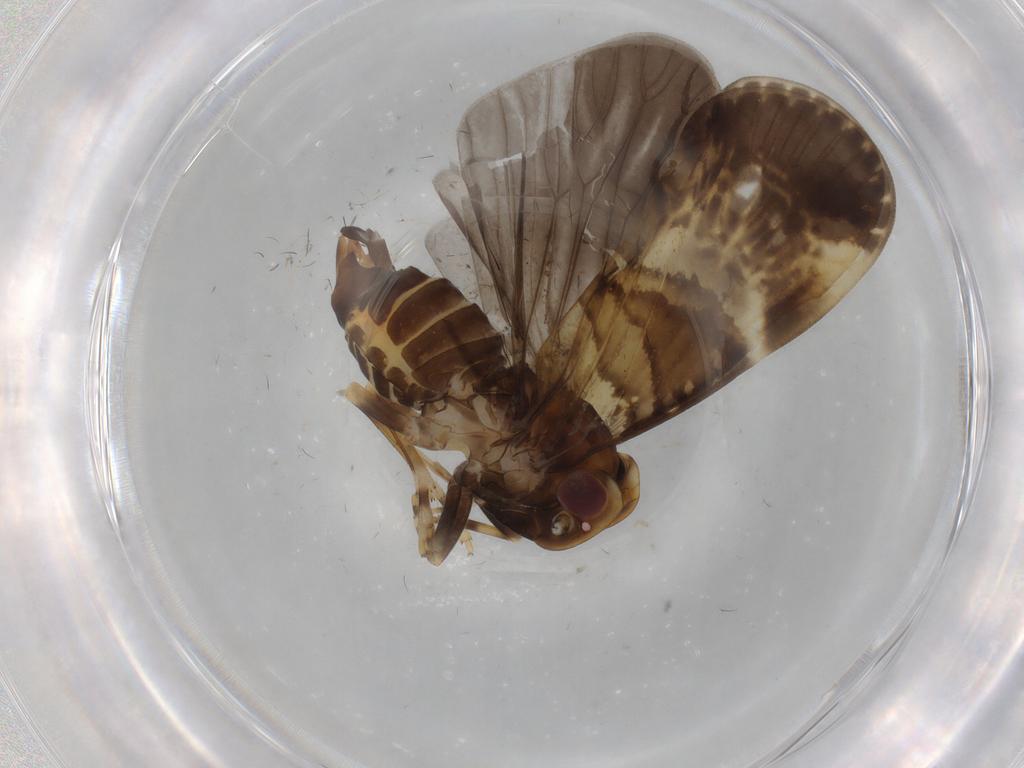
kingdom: Animalia
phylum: Arthropoda
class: Insecta
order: Hemiptera
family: Cixiidae
